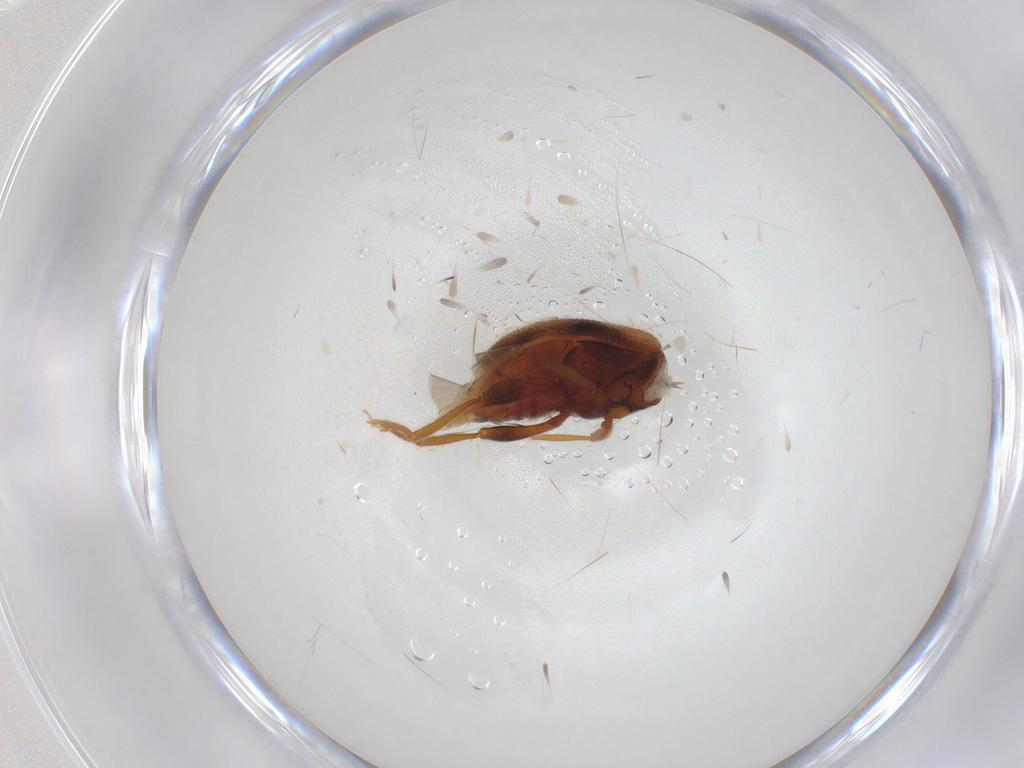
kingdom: Animalia
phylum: Arthropoda
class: Insecta
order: Coleoptera
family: Aderidae
